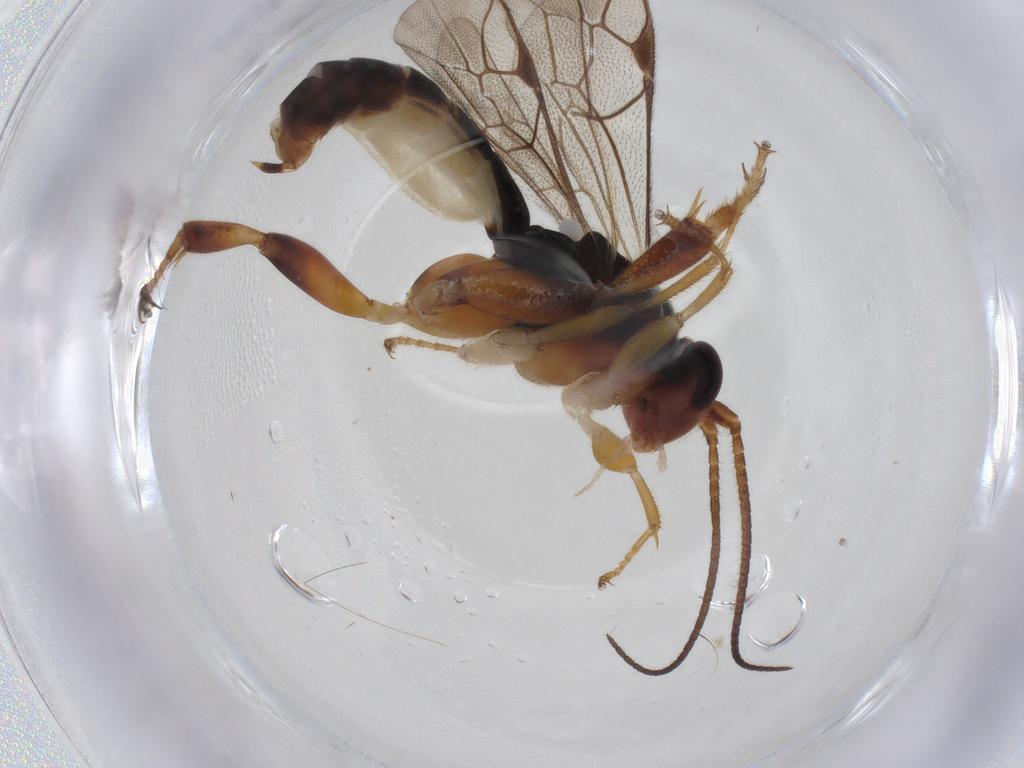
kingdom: Animalia
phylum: Arthropoda
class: Insecta
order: Hymenoptera
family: Ichneumonidae
